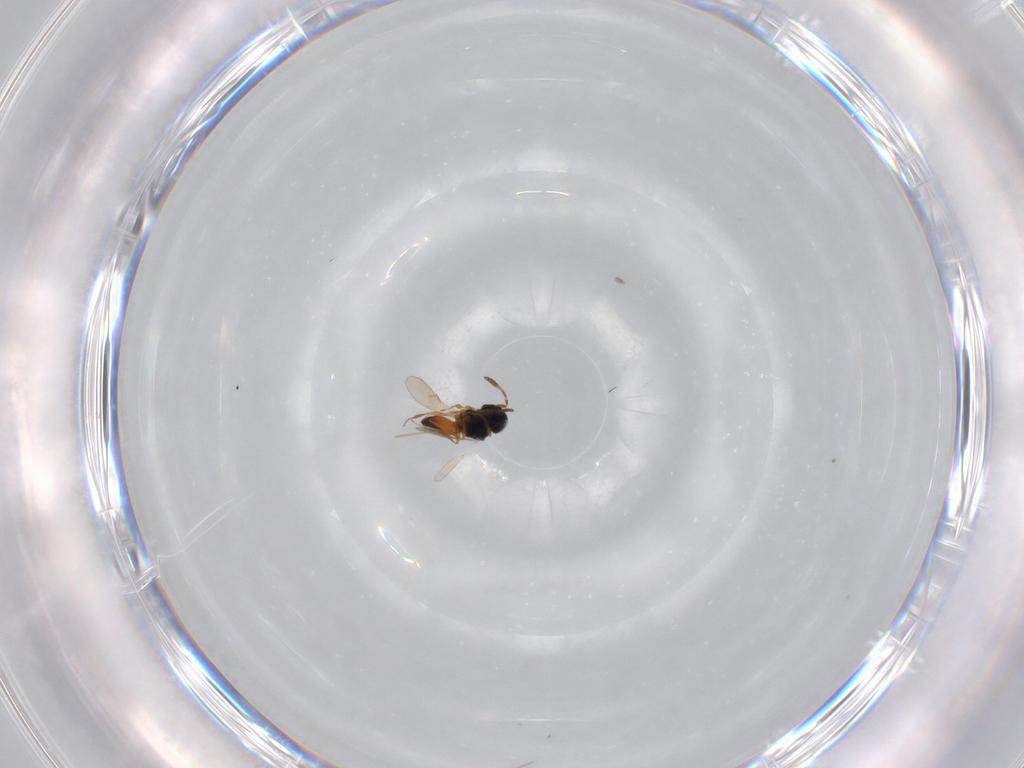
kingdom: Animalia
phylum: Arthropoda
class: Insecta
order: Hymenoptera
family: Scelionidae
